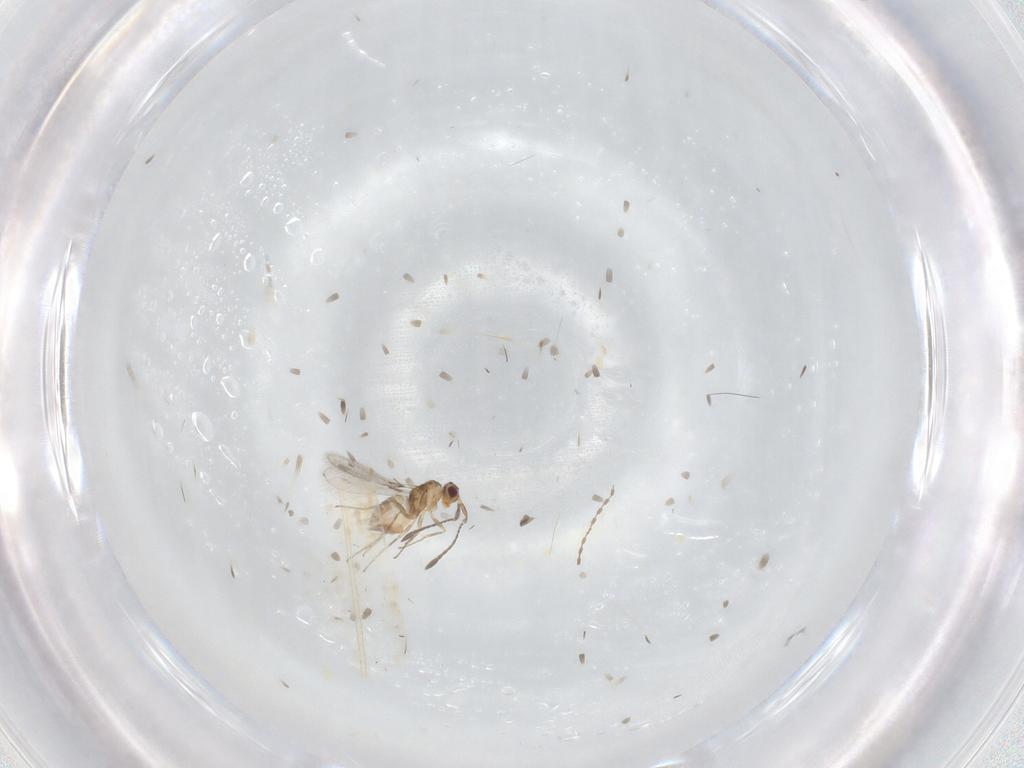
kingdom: Animalia
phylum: Arthropoda
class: Insecta
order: Hymenoptera
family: Mymaridae
